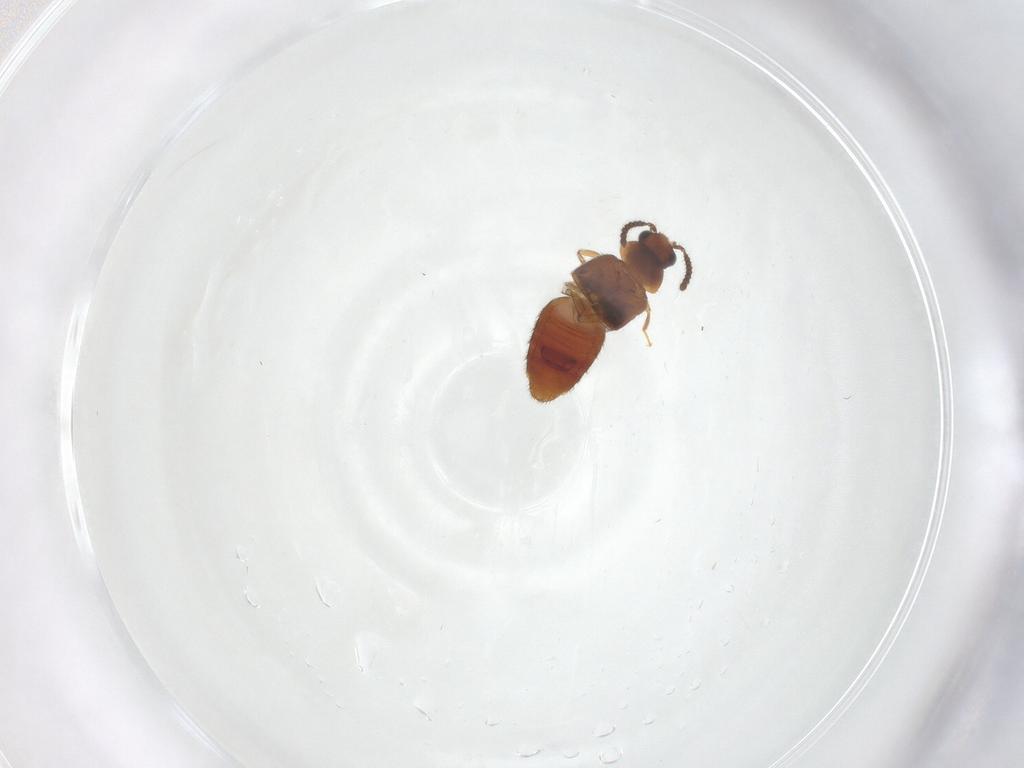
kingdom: Animalia
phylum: Arthropoda
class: Insecta
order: Coleoptera
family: Staphylinidae
